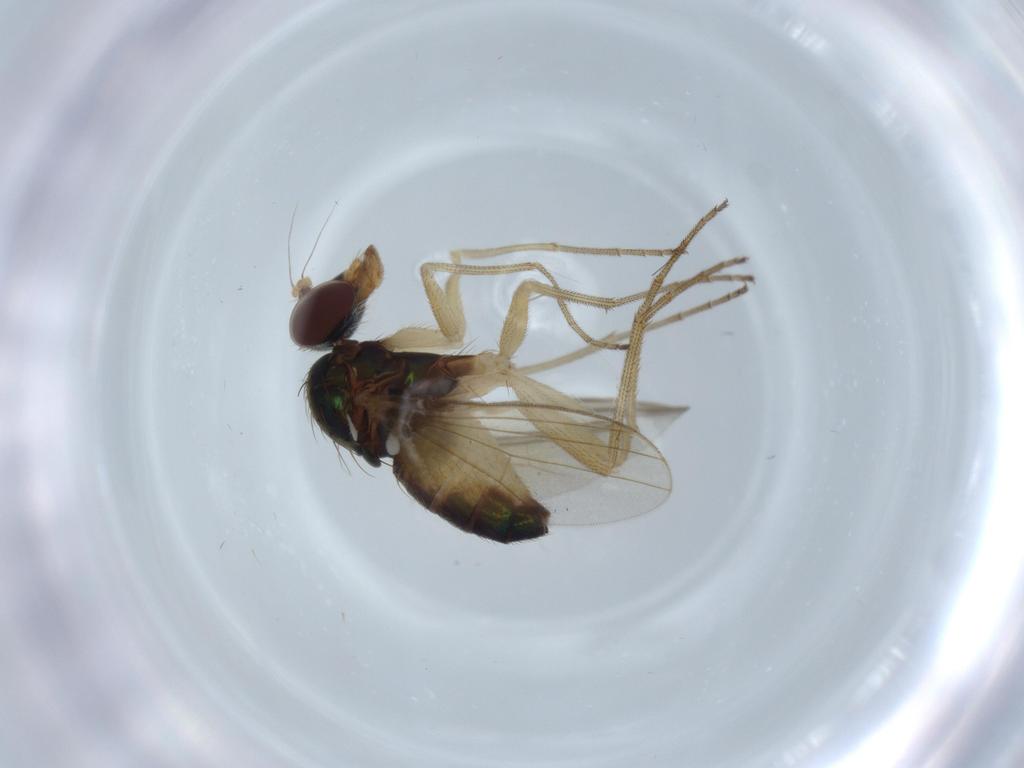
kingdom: Animalia
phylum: Arthropoda
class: Insecta
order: Diptera
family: Dolichopodidae
